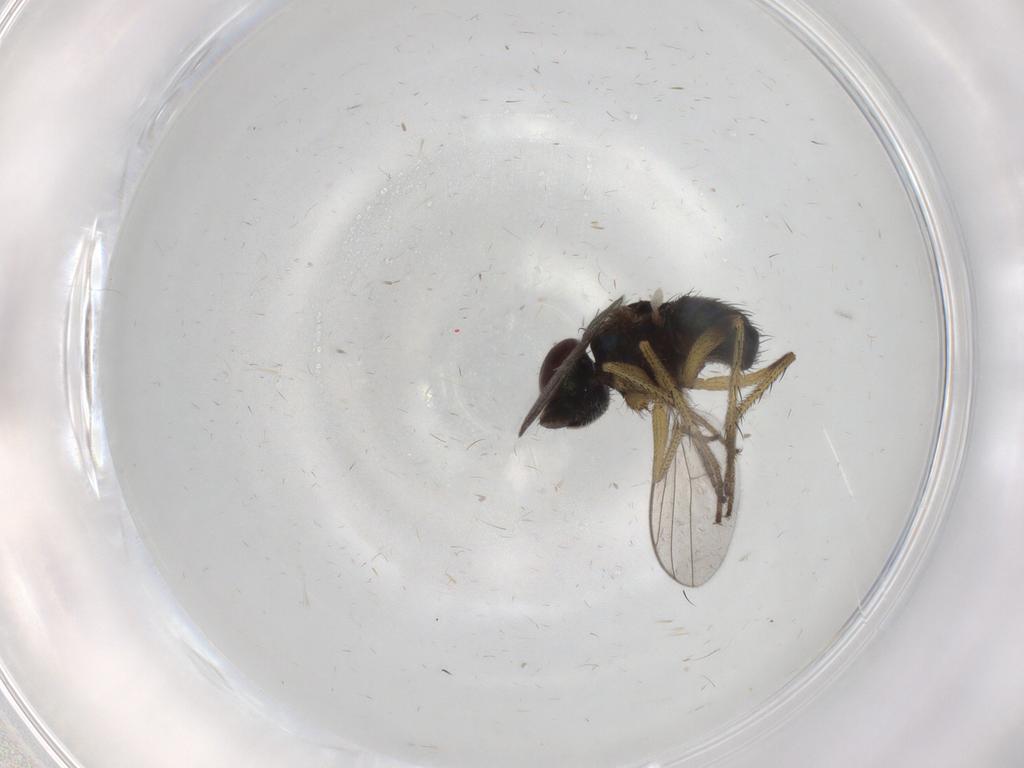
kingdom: Animalia
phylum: Arthropoda
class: Insecta
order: Diptera
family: Dolichopodidae
